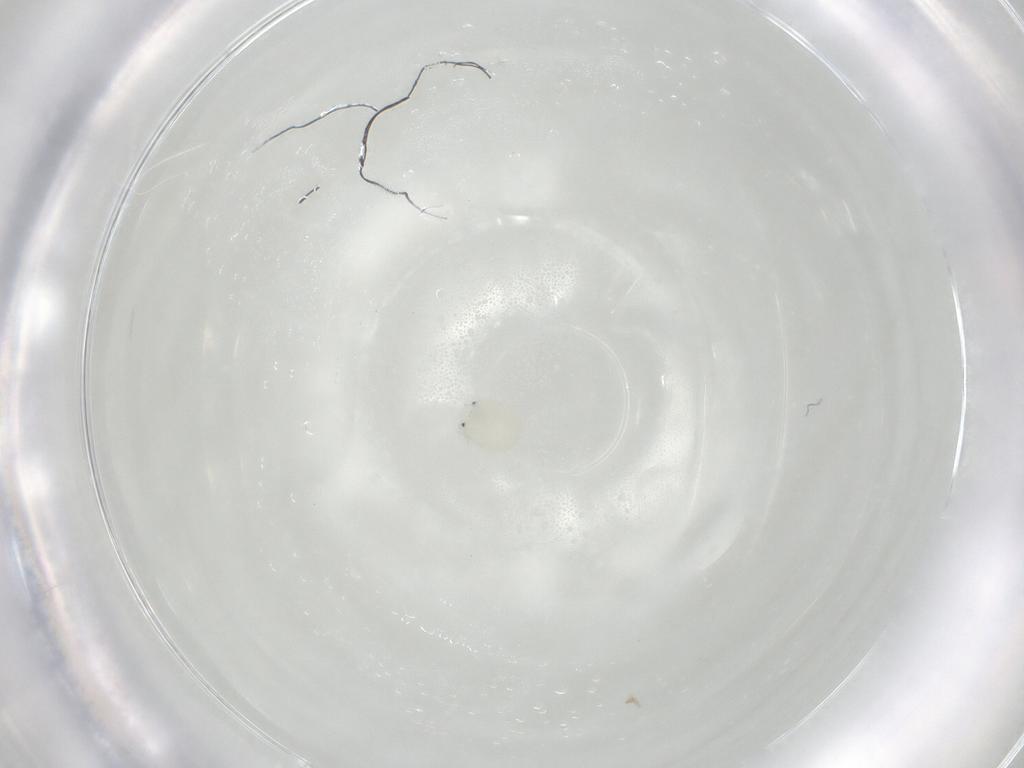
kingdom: Animalia
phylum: Arthropoda
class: Arachnida
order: Trombidiformes
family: Arrenuridae
